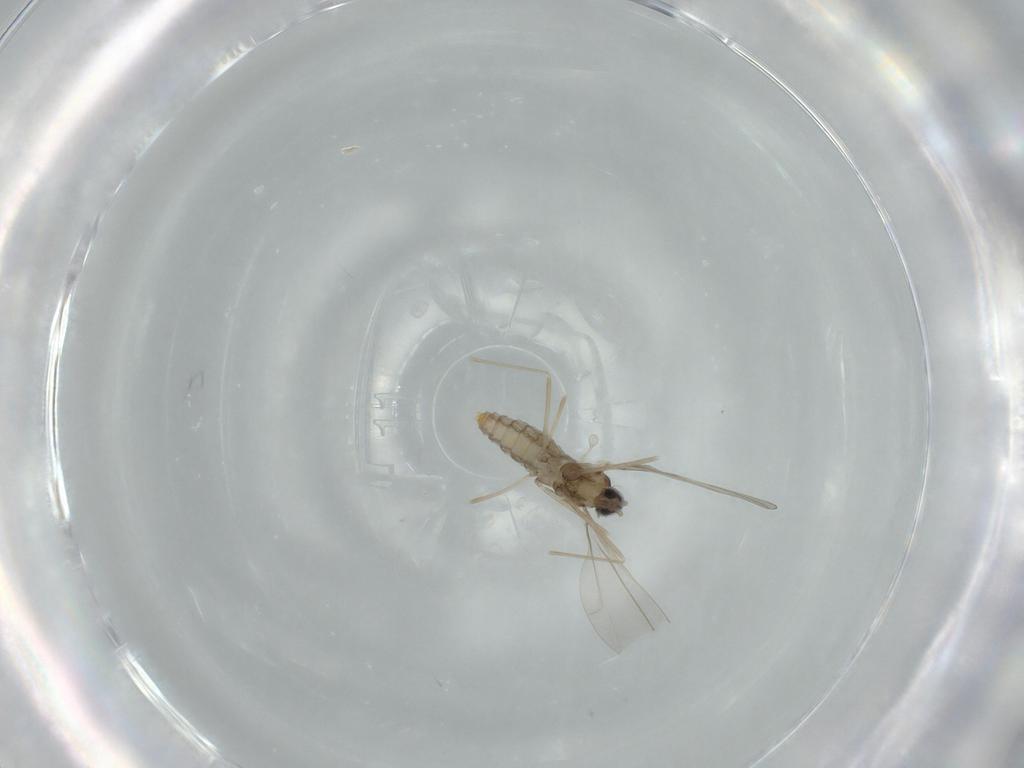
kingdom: Animalia
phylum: Arthropoda
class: Insecta
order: Diptera
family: Cecidomyiidae
